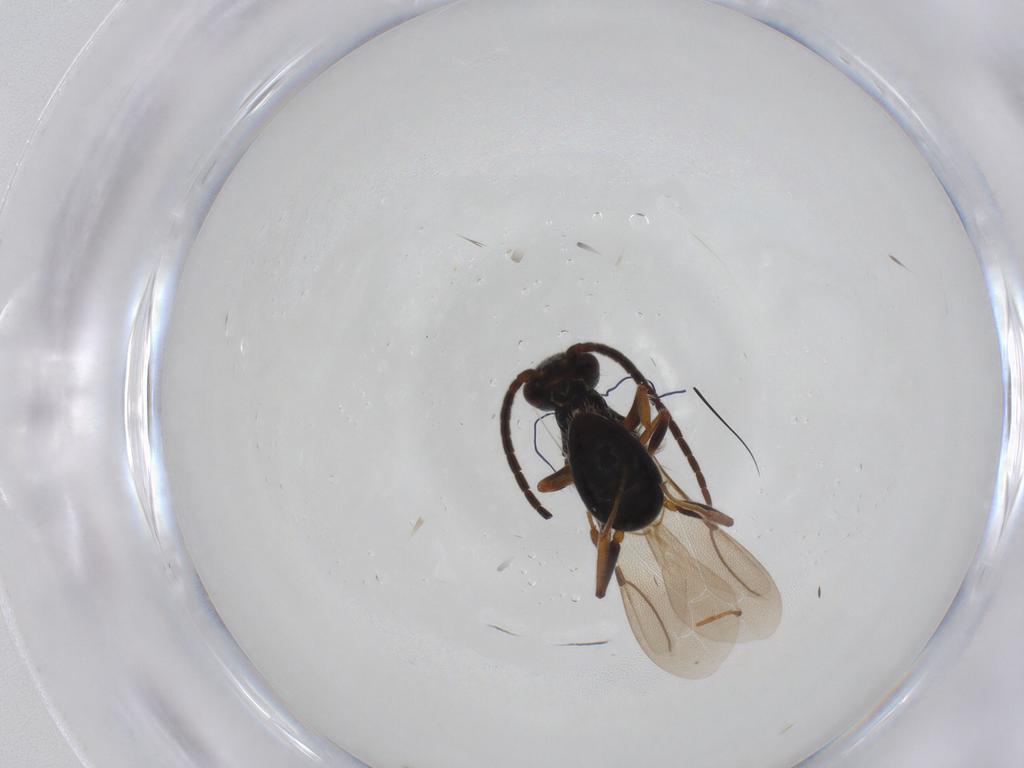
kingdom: Animalia
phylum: Arthropoda
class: Insecta
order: Hymenoptera
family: Bethylidae
